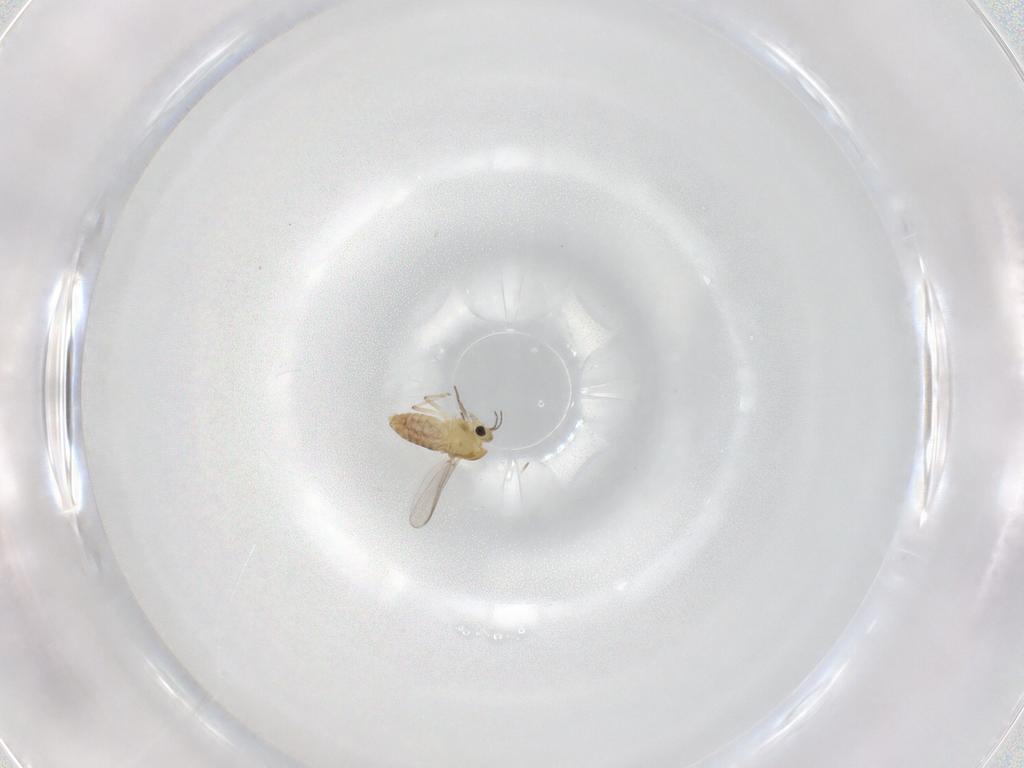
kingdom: Animalia
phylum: Arthropoda
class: Insecta
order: Diptera
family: Chironomidae
